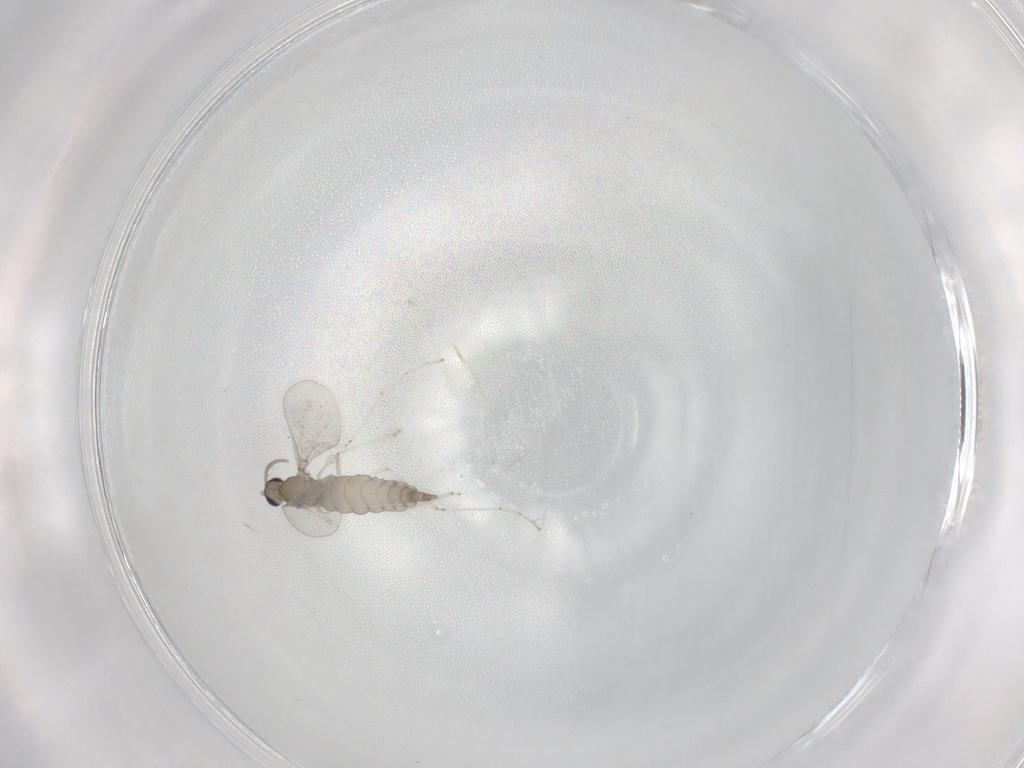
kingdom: Animalia
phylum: Arthropoda
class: Insecta
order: Diptera
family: Cecidomyiidae
